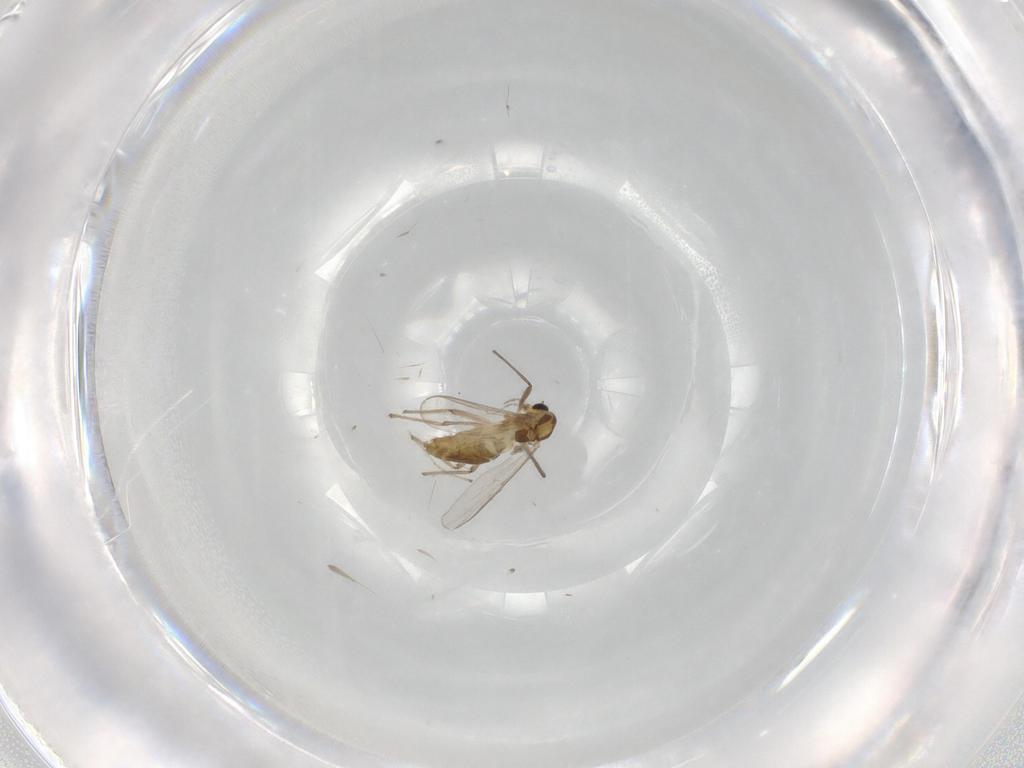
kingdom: Animalia
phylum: Arthropoda
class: Insecta
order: Diptera
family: Chironomidae
